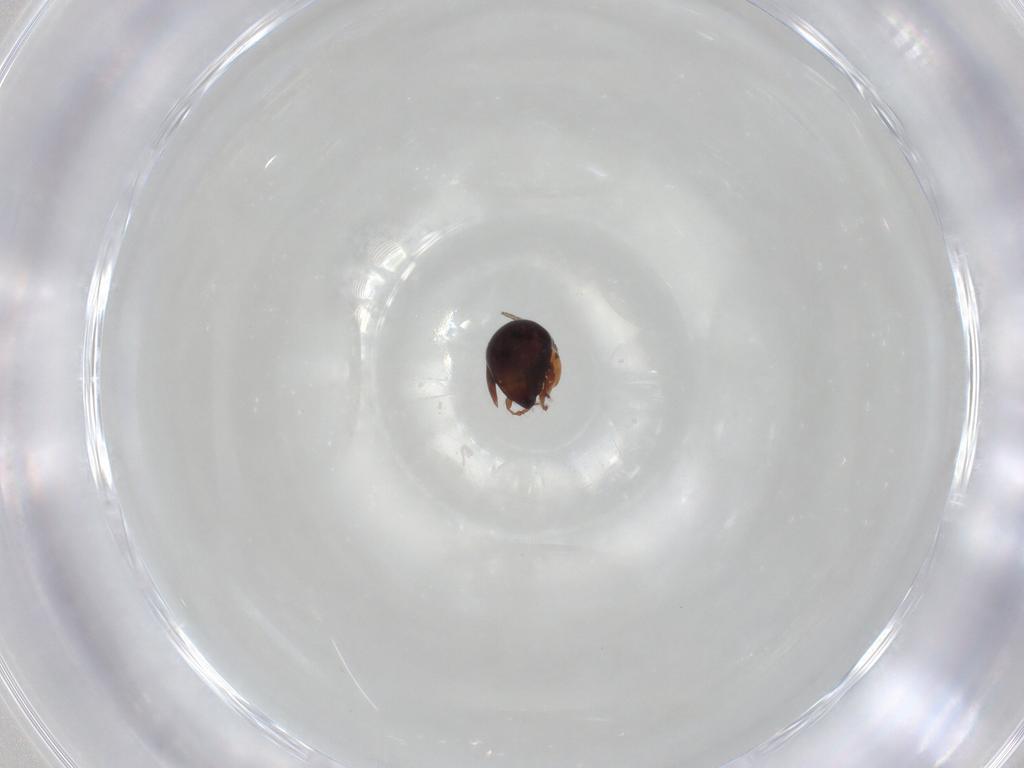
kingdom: Animalia
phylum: Arthropoda
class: Arachnida
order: Sarcoptiformes
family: Galumnidae
